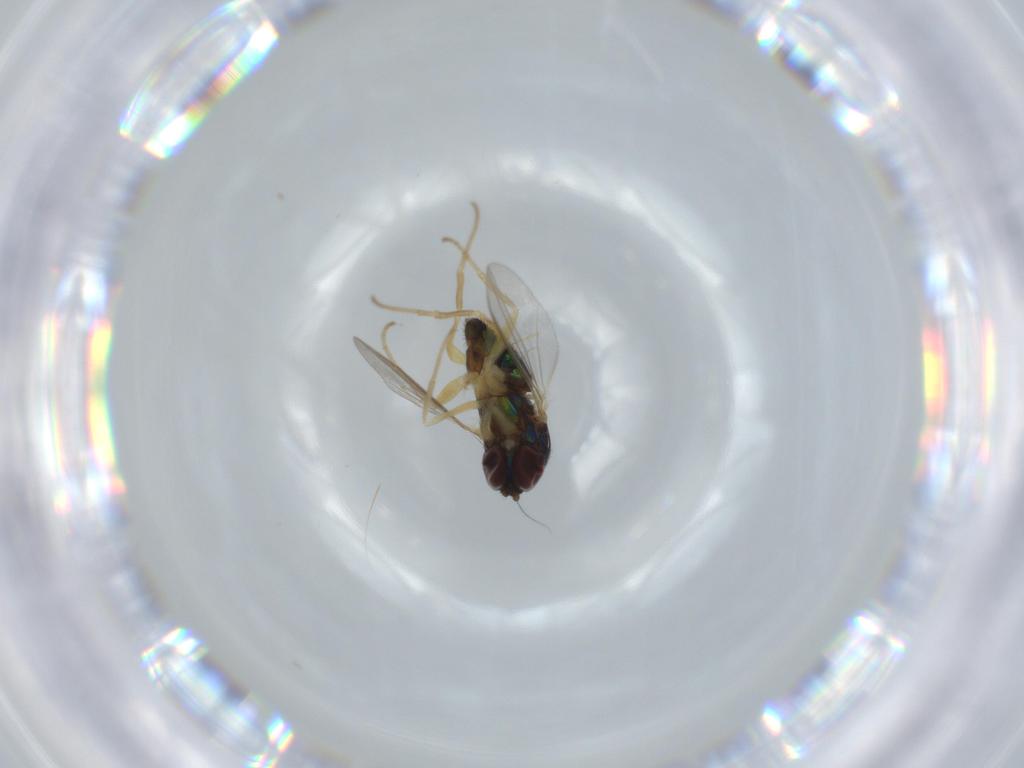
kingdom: Animalia
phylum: Arthropoda
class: Insecta
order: Diptera
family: Dolichopodidae
